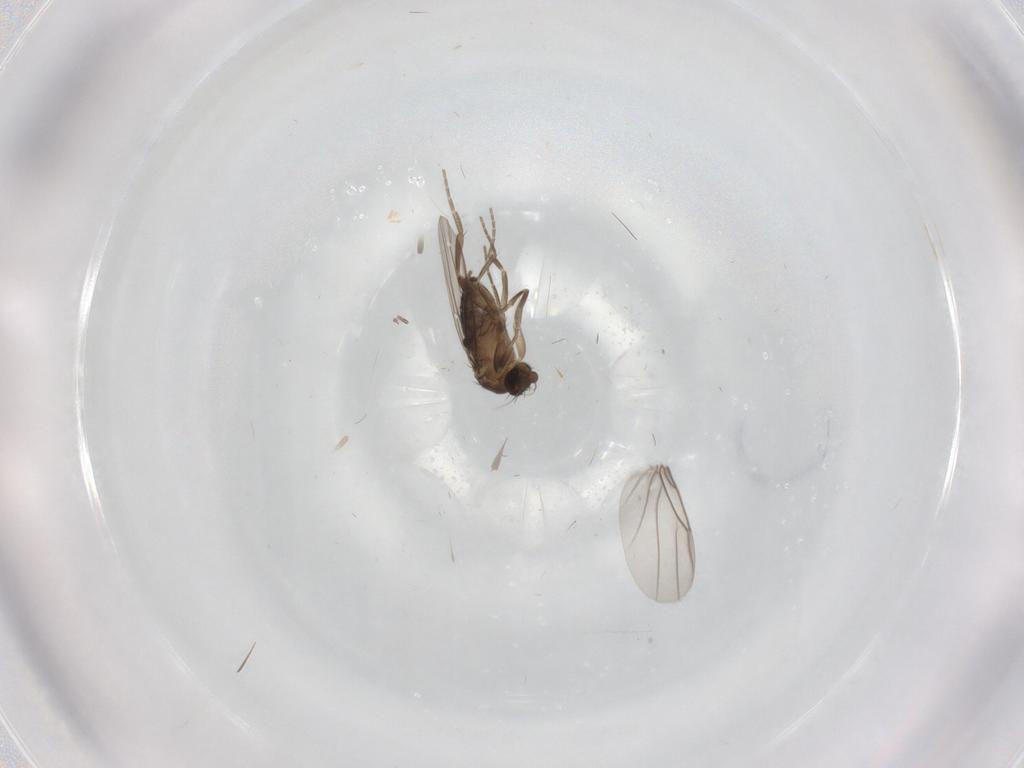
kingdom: Animalia
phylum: Arthropoda
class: Insecta
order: Diptera
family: Chironomidae
